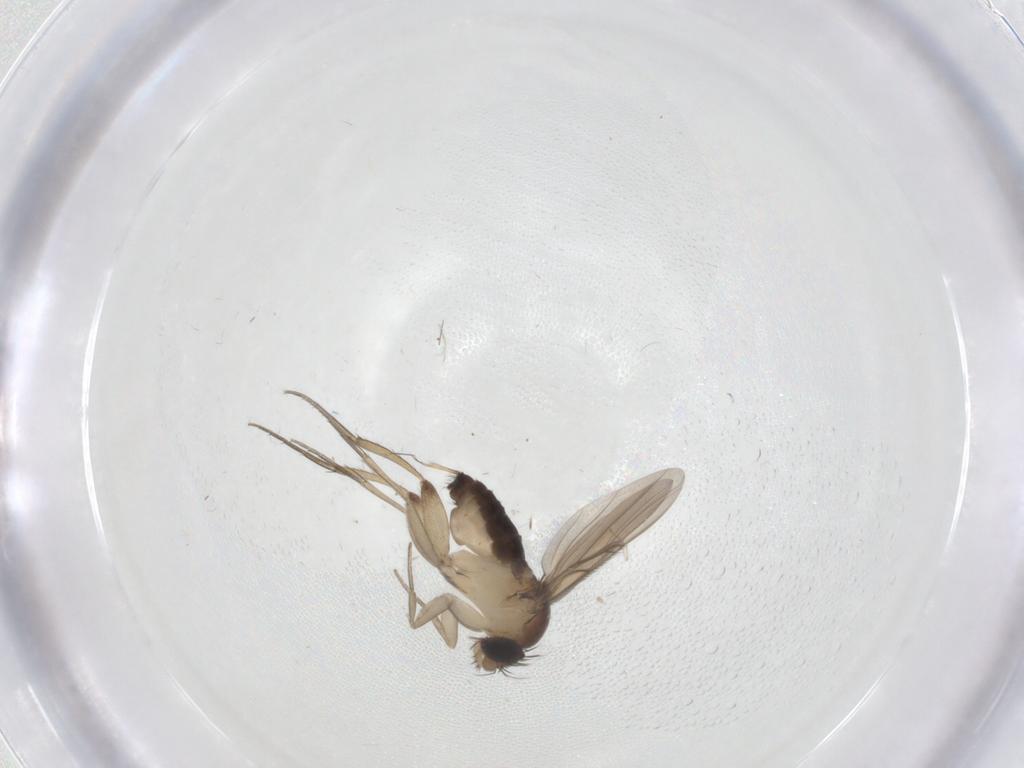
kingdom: Animalia
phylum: Arthropoda
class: Insecta
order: Diptera
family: Phoridae
